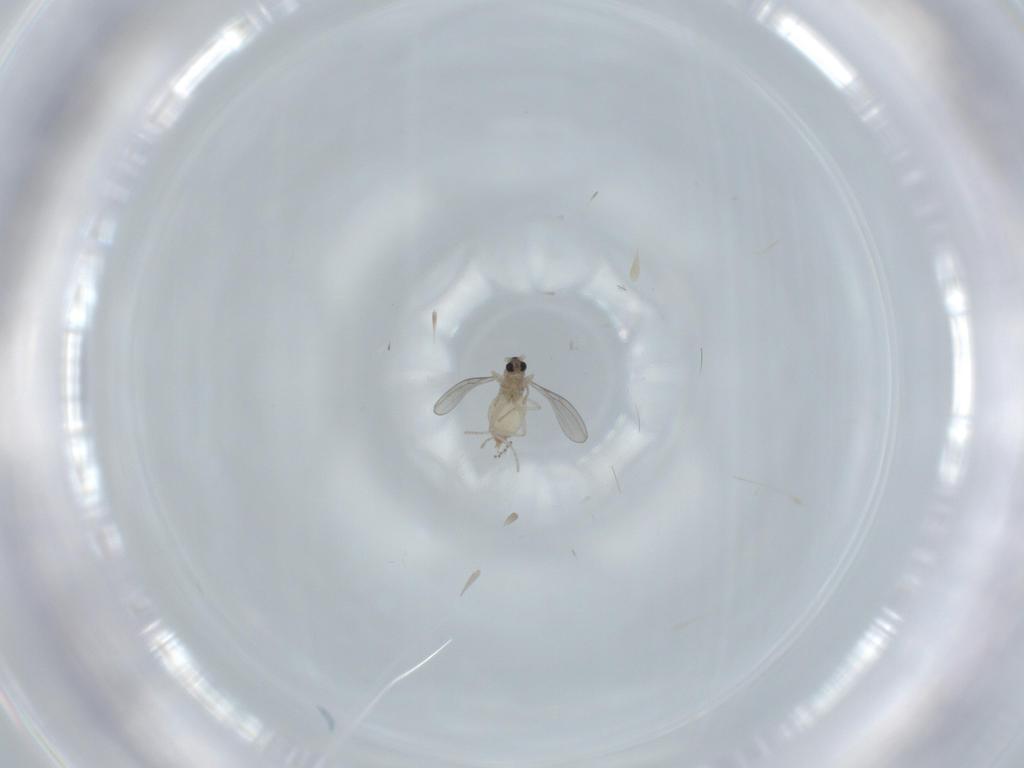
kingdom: Animalia
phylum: Arthropoda
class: Insecta
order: Diptera
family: Cecidomyiidae
